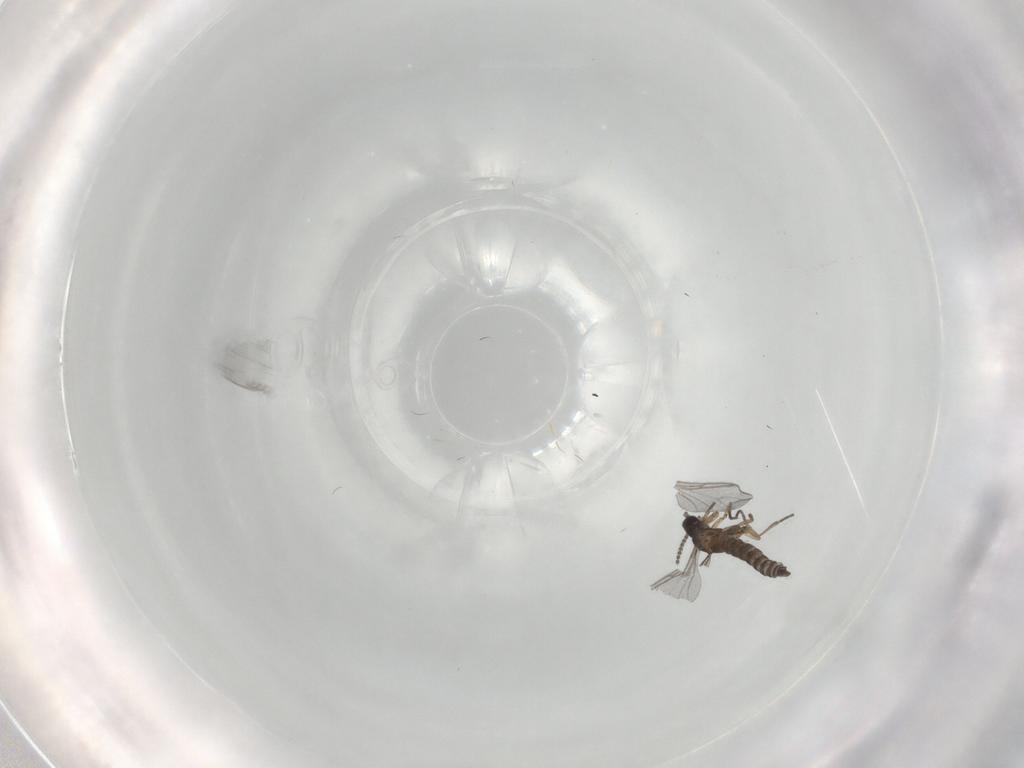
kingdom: Animalia
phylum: Arthropoda
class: Insecta
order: Diptera
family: Sciaridae
